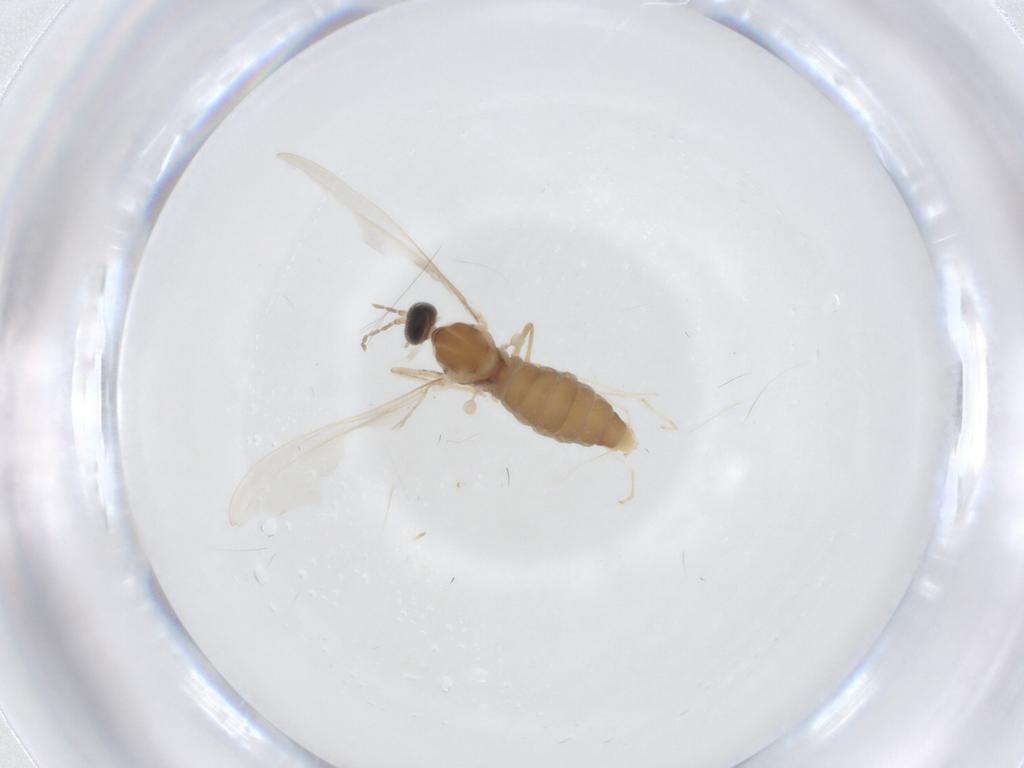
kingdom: Animalia
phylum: Arthropoda
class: Insecta
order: Diptera
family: Cecidomyiidae
